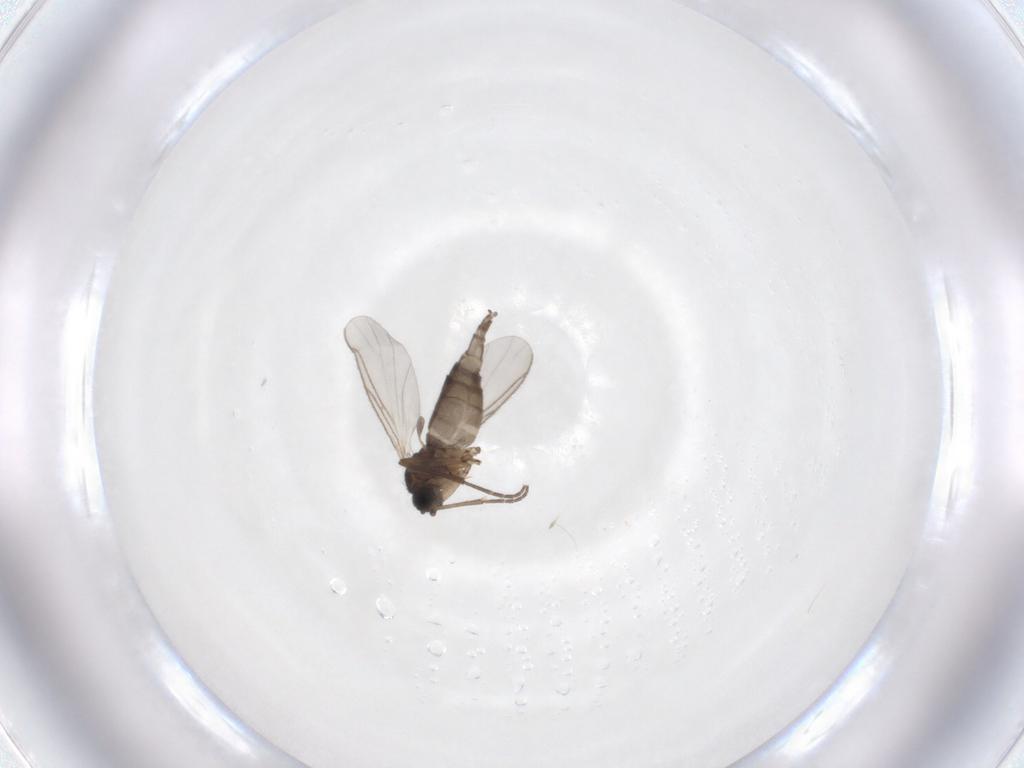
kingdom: Animalia
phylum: Arthropoda
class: Insecta
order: Diptera
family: Sciaridae
